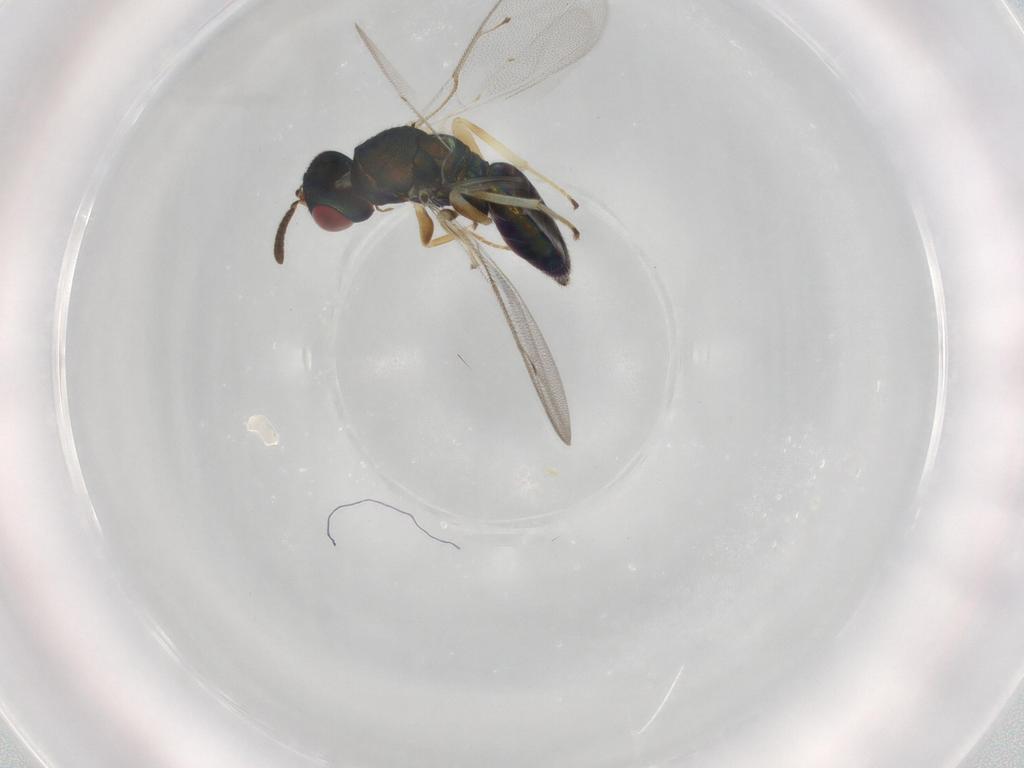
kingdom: Animalia
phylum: Arthropoda
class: Insecta
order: Hymenoptera
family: Pteromalidae
